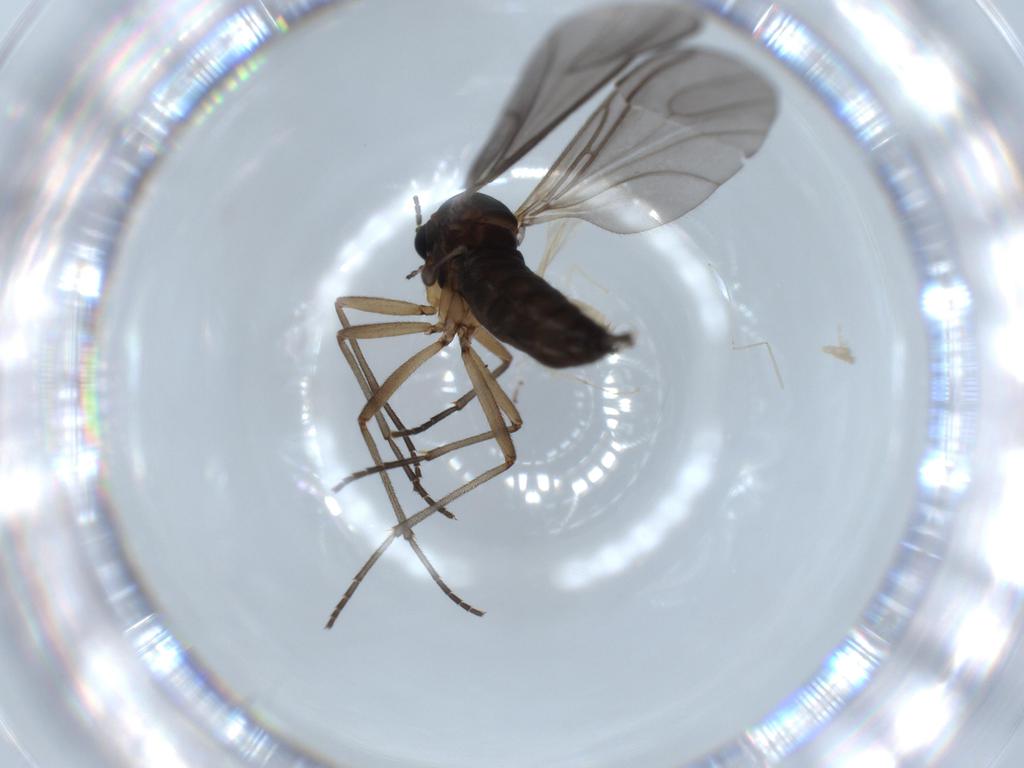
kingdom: Animalia
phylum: Arthropoda
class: Insecta
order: Diptera
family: Sciaridae
